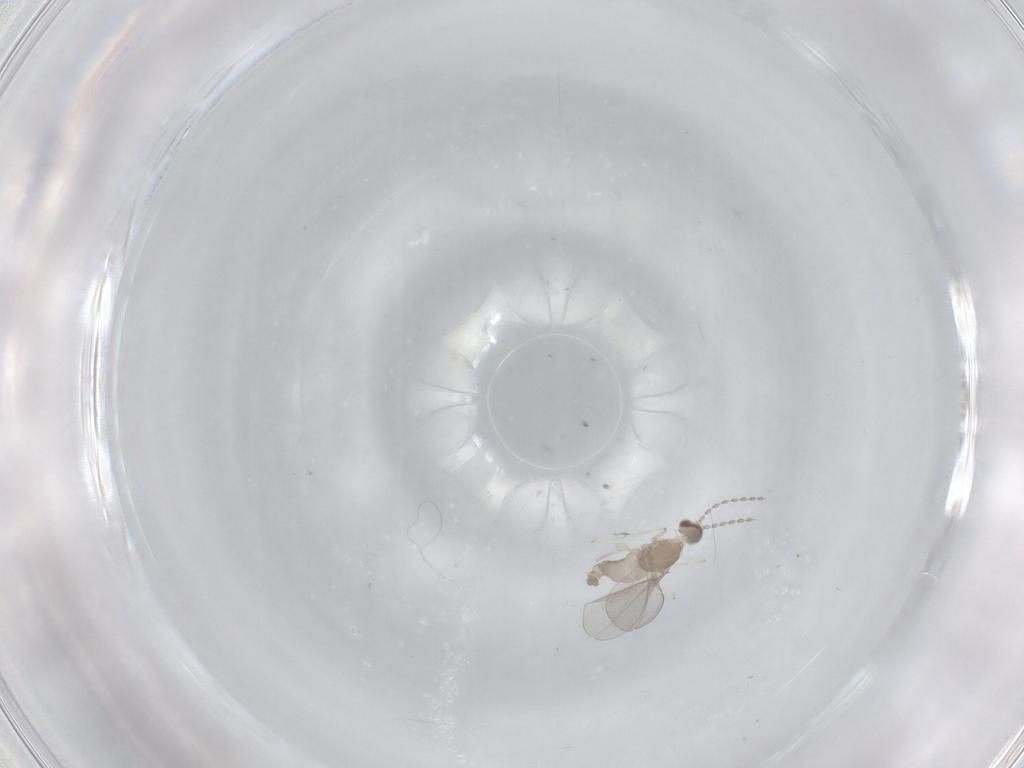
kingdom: Animalia
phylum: Arthropoda
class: Insecta
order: Diptera
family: Cecidomyiidae
